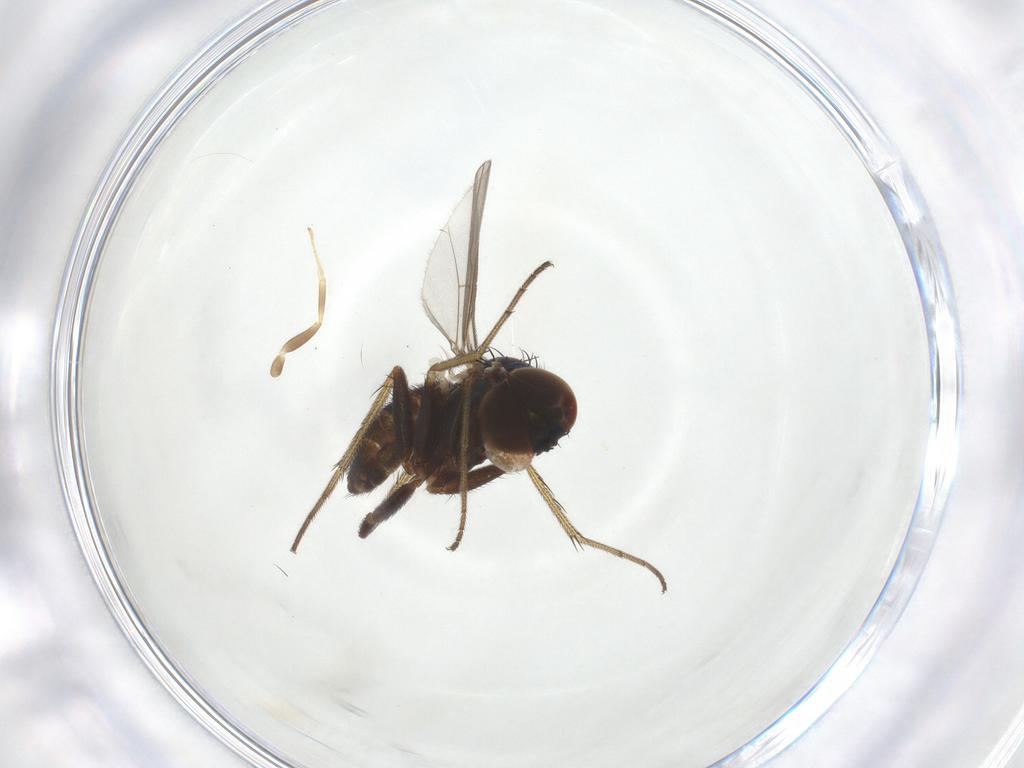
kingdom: Animalia
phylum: Arthropoda
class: Insecta
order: Diptera
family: Dolichopodidae
